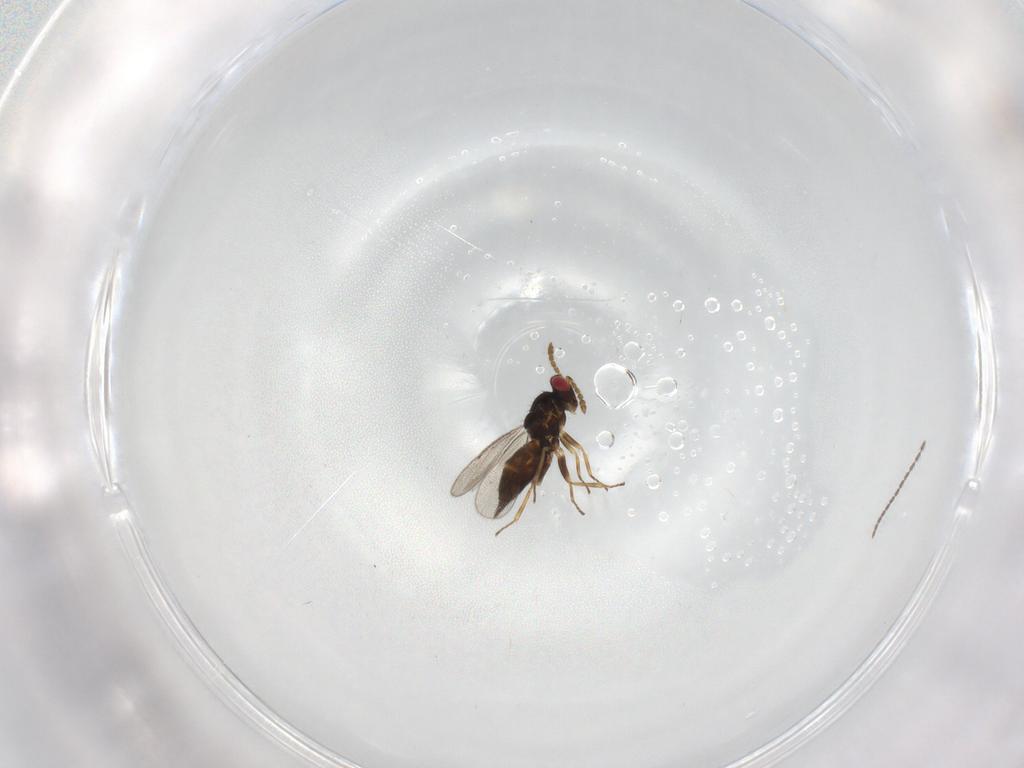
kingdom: Animalia
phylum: Arthropoda
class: Insecta
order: Hymenoptera
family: Eulophidae
